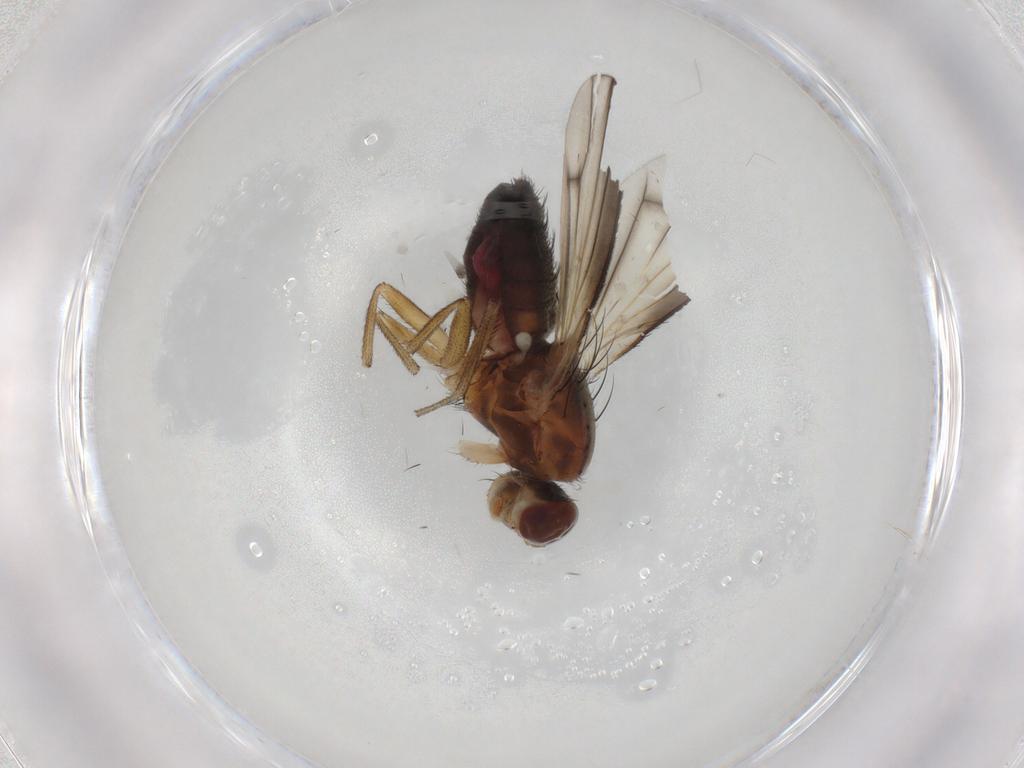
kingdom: Animalia
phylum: Arthropoda
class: Insecta
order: Diptera
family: Heleomyzidae
